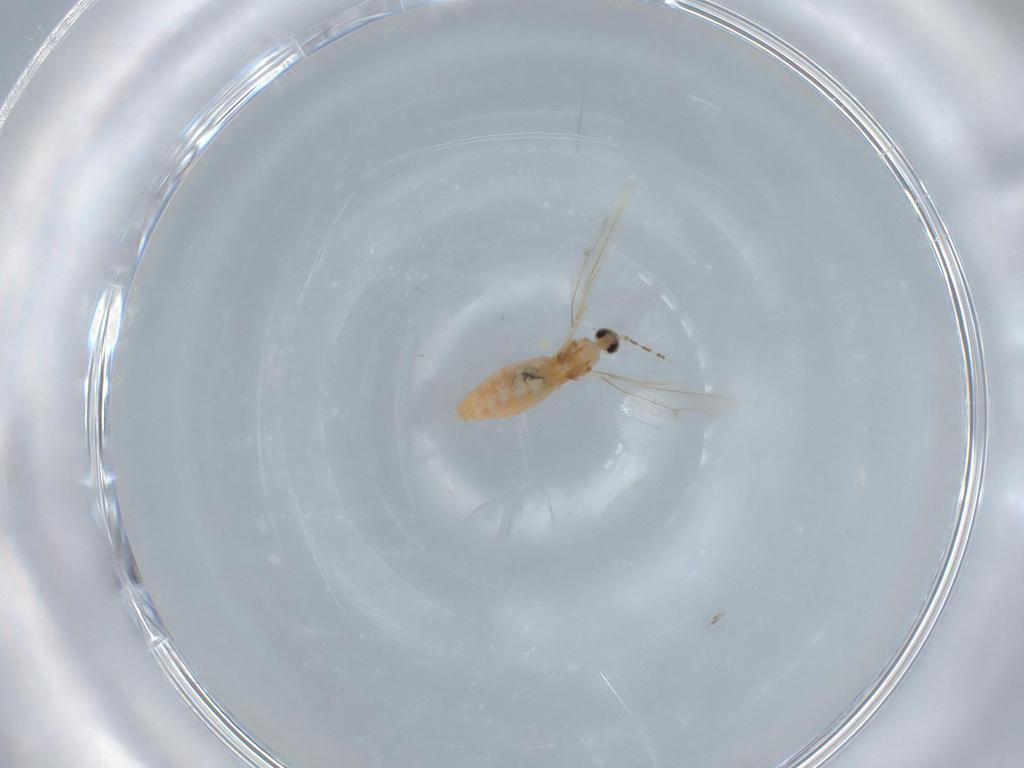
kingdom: Animalia
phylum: Arthropoda
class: Insecta
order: Diptera
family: Cecidomyiidae
